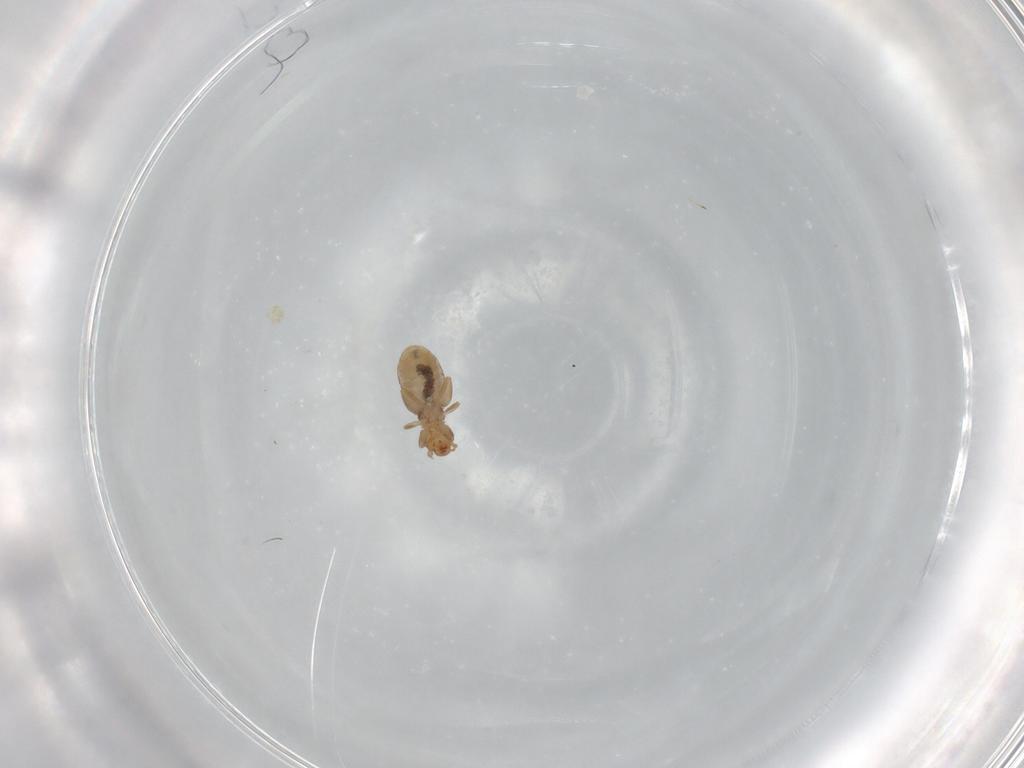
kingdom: Animalia
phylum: Arthropoda
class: Insecta
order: Psocodea
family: Liposcelididae
